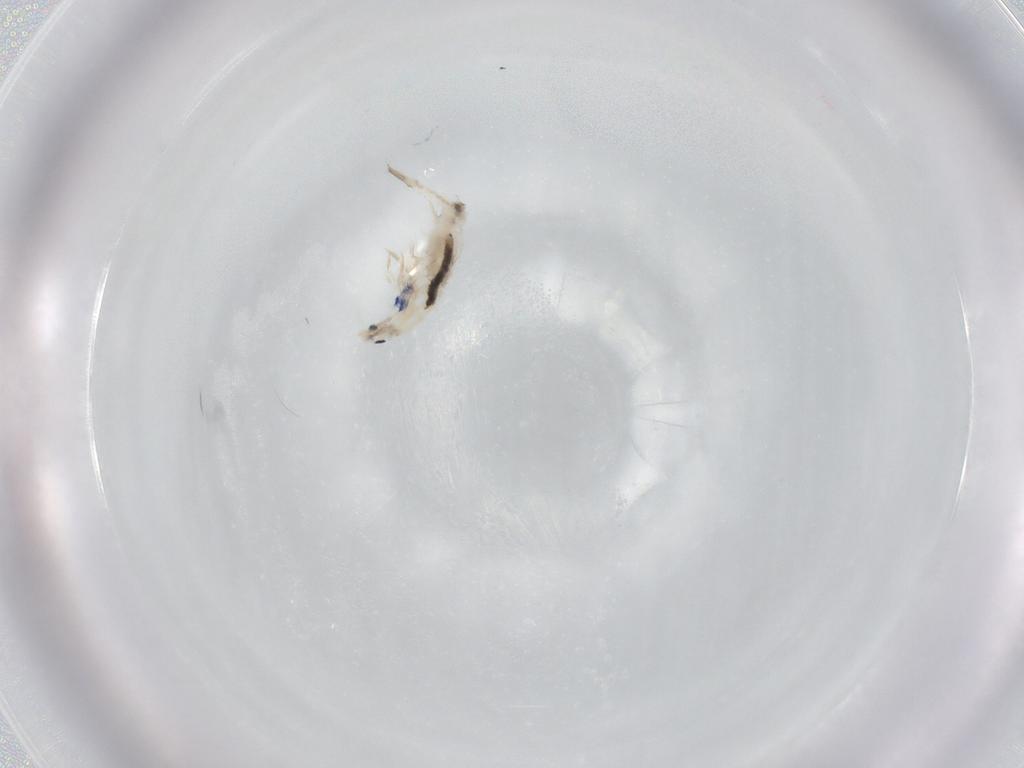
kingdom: Animalia
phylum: Arthropoda
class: Collembola
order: Entomobryomorpha
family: Entomobryidae
